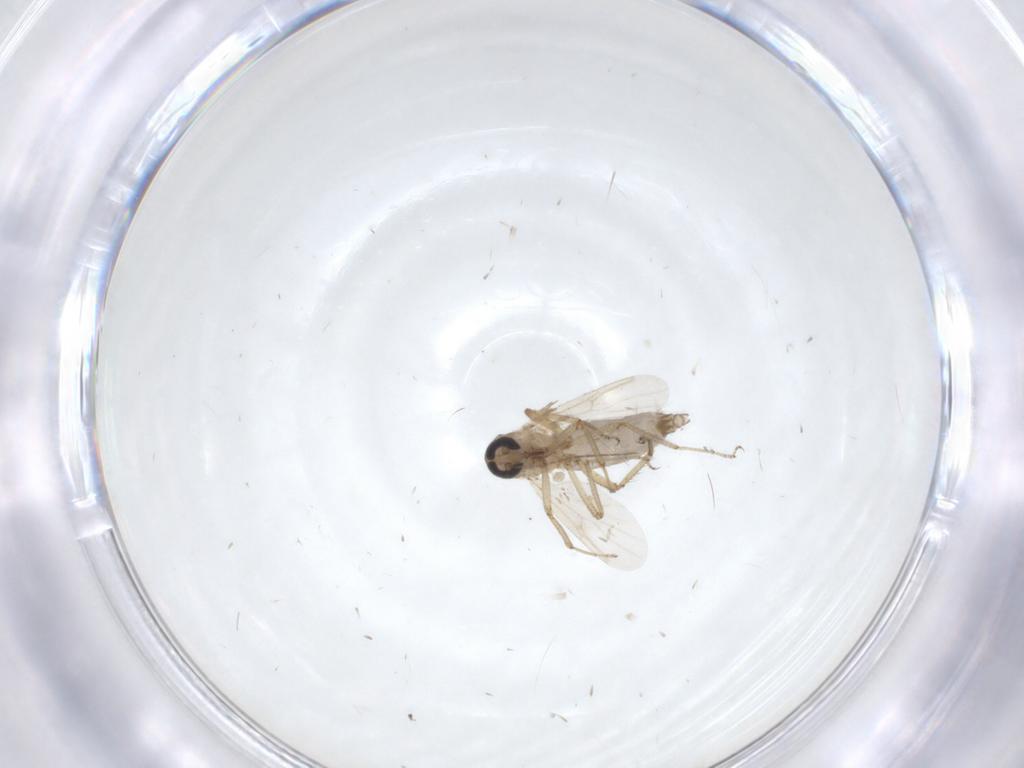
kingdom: Animalia
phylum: Arthropoda
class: Insecta
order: Diptera
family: Ceratopogonidae
